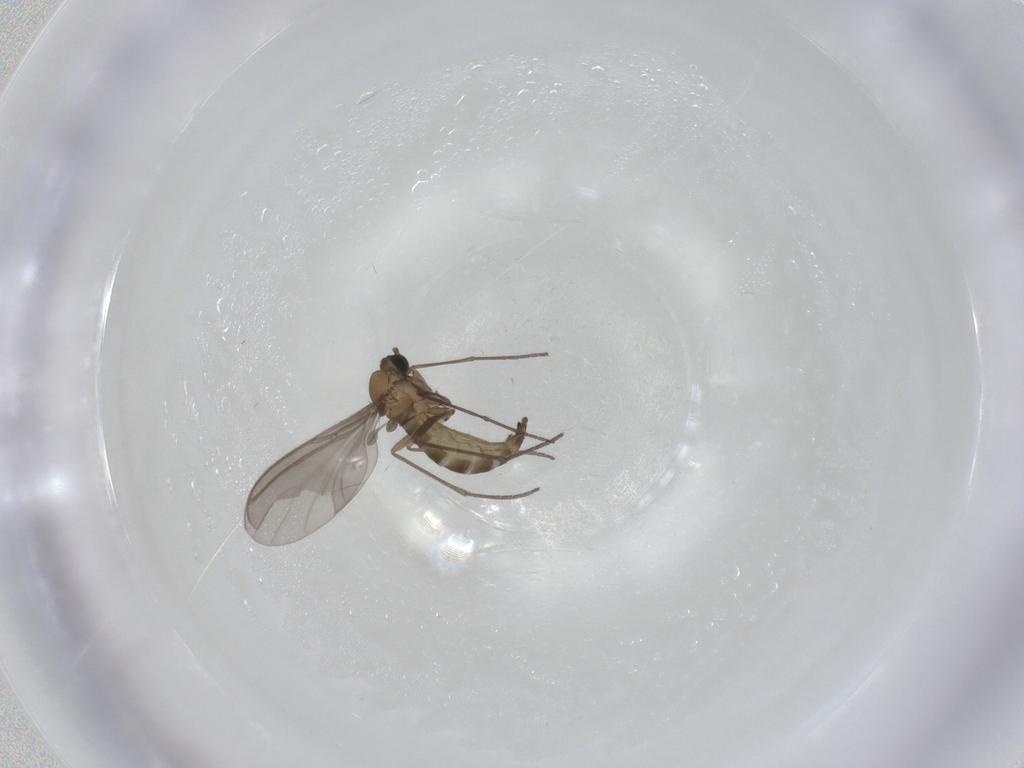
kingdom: Animalia
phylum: Arthropoda
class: Insecta
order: Diptera
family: Sciaridae
